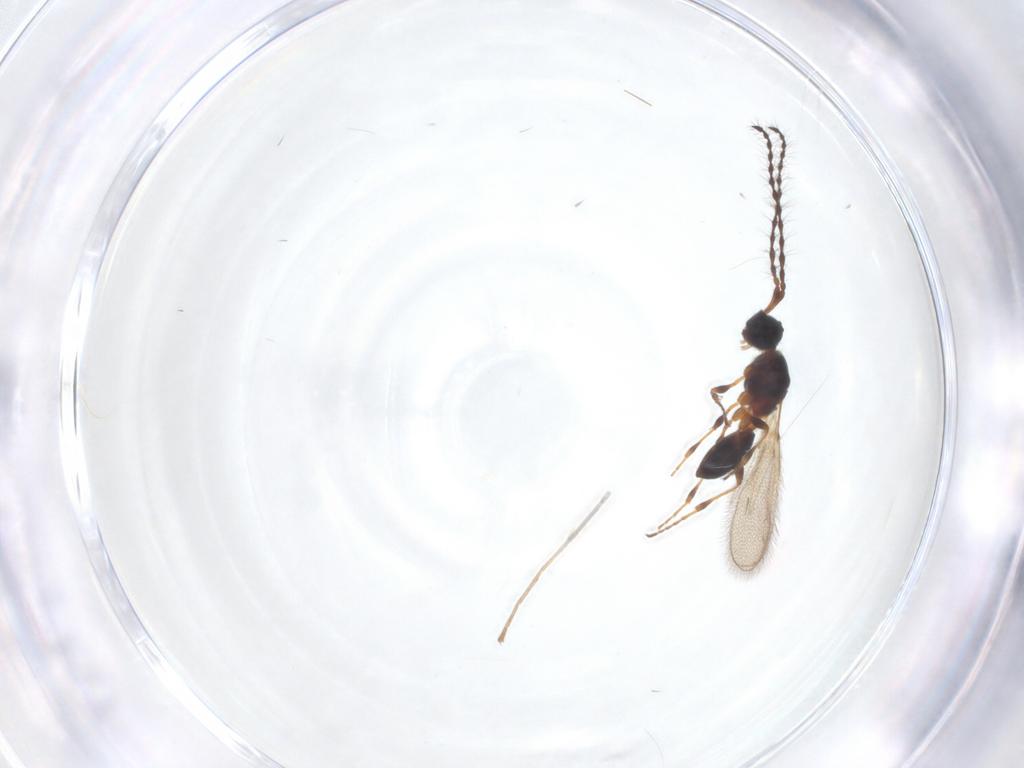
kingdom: Animalia
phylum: Arthropoda
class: Insecta
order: Hymenoptera
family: Diapriidae
